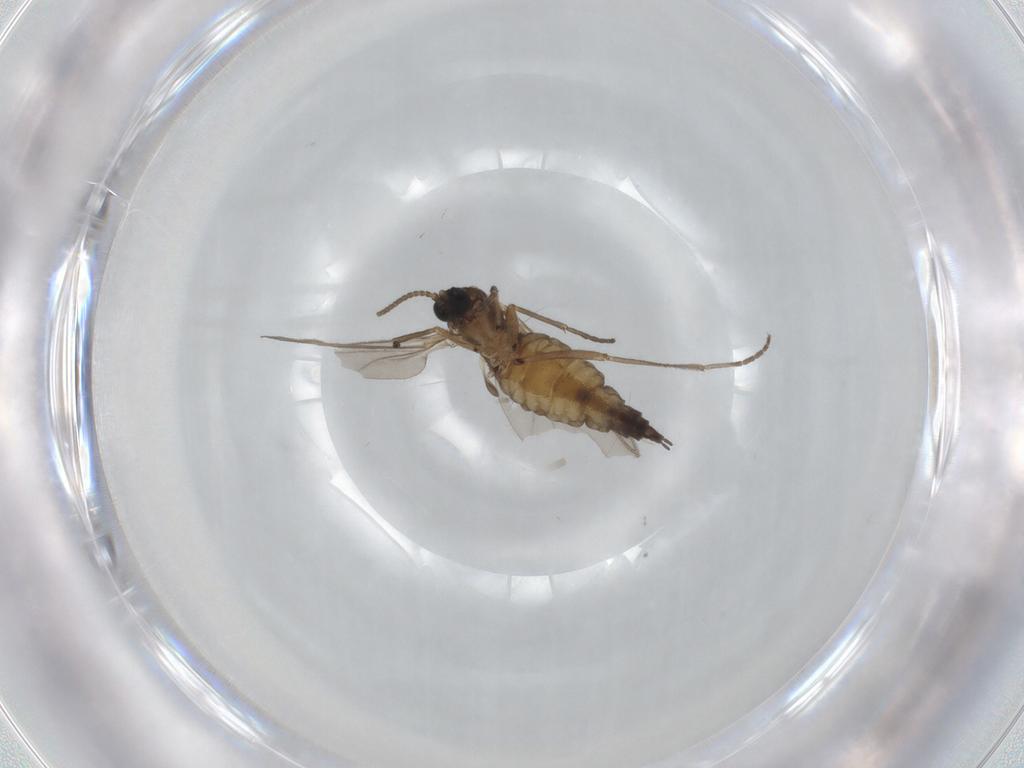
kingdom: Animalia
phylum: Arthropoda
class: Insecta
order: Diptera
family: Sciaridae
